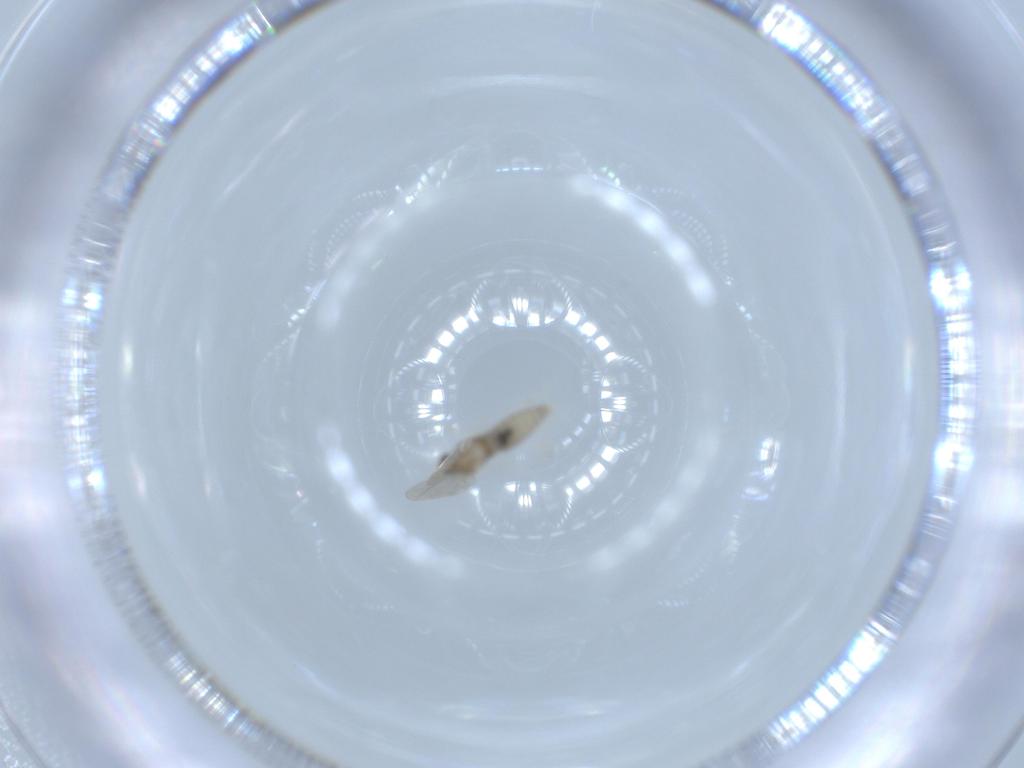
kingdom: Animalia
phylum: Arthropoda
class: Insecta
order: Diptera
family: Cecidomyiidae
